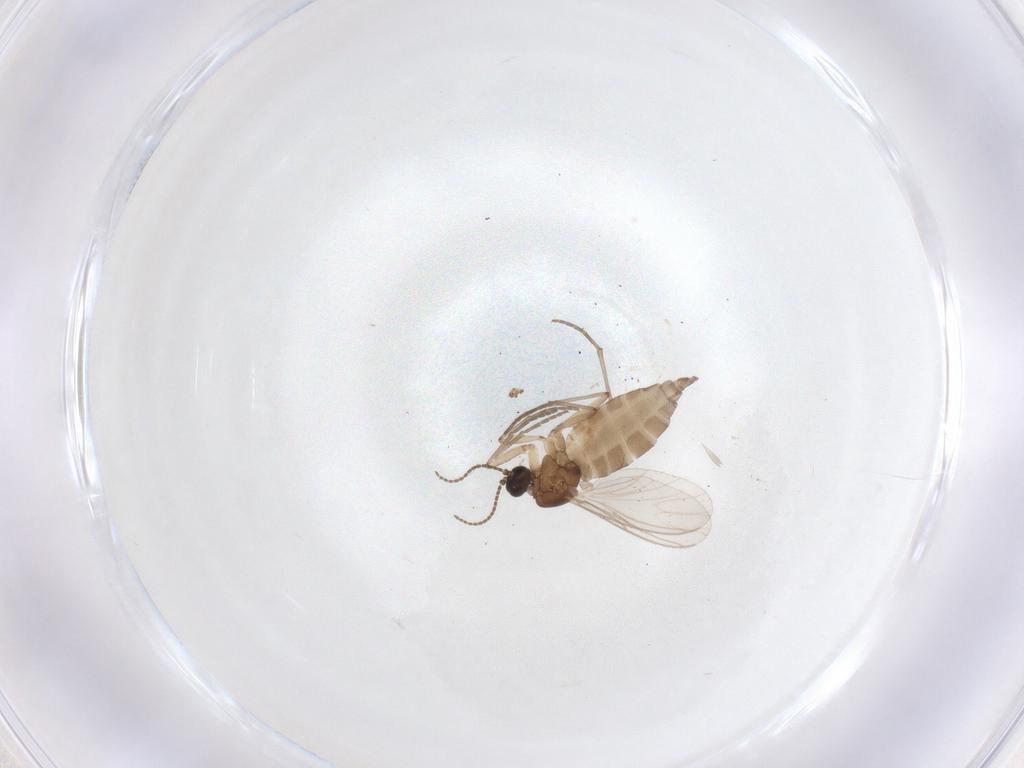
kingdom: Animalia
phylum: Arthropoda
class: Insecta
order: Diptera
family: Sciaridae
